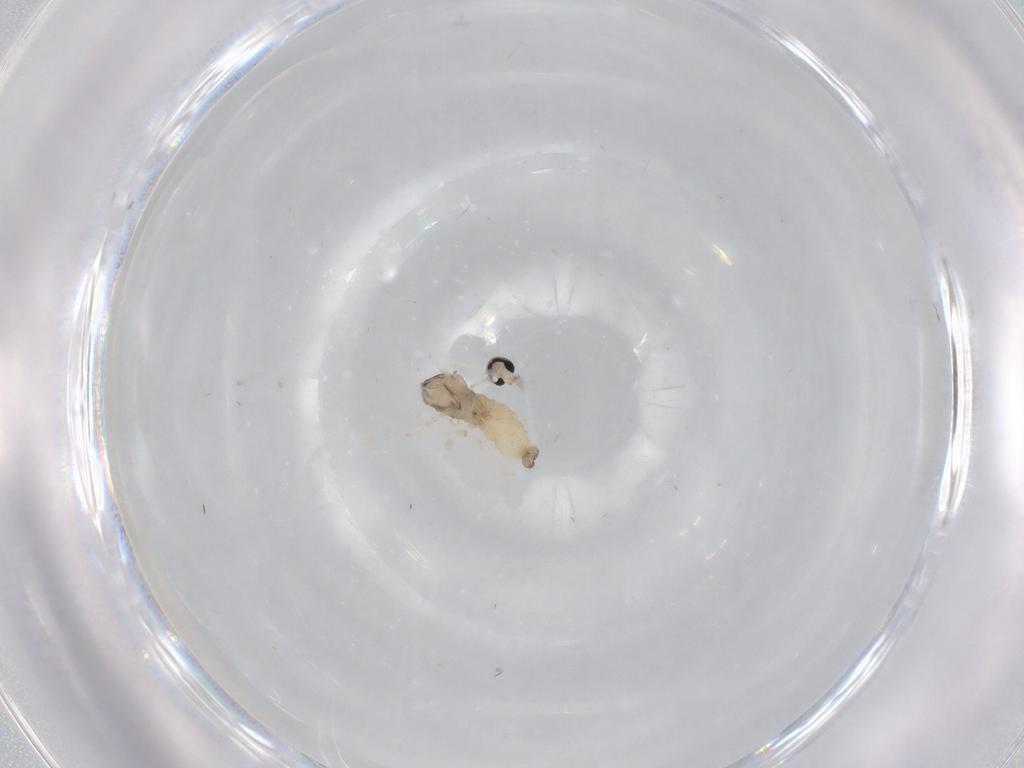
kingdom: Animalia
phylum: Arthropoda
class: Insecta
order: Diptera
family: Cecidomyiidae
